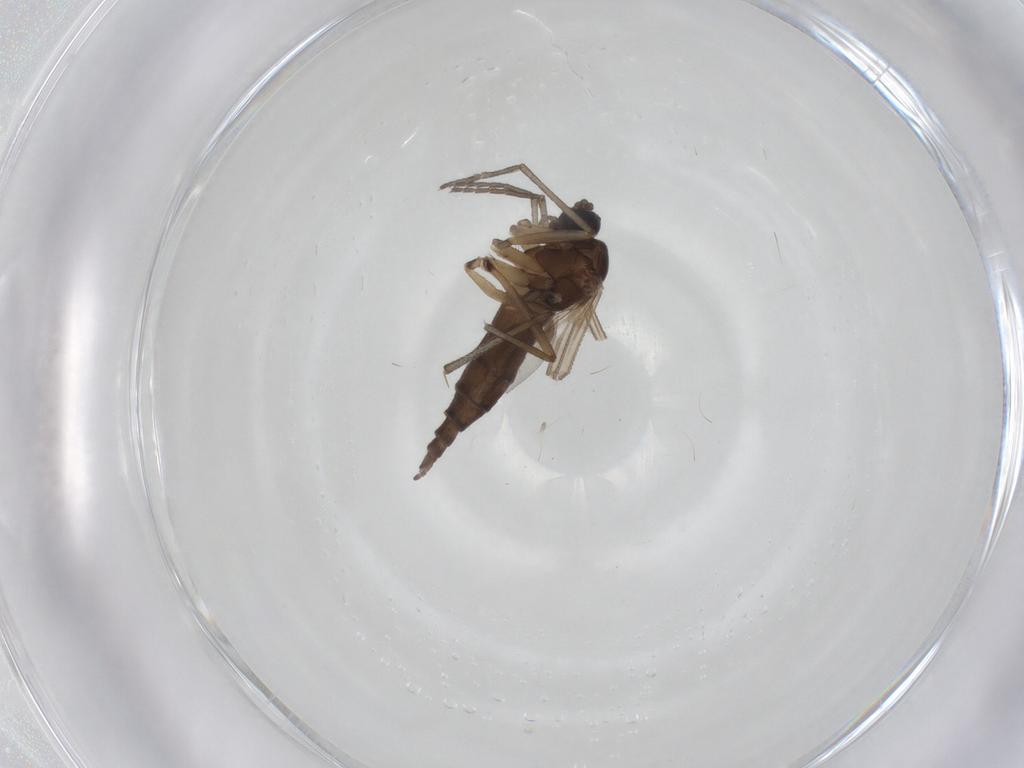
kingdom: Animalia
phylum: Arthropoda
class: Insecta
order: Diptera
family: Sciaridae
